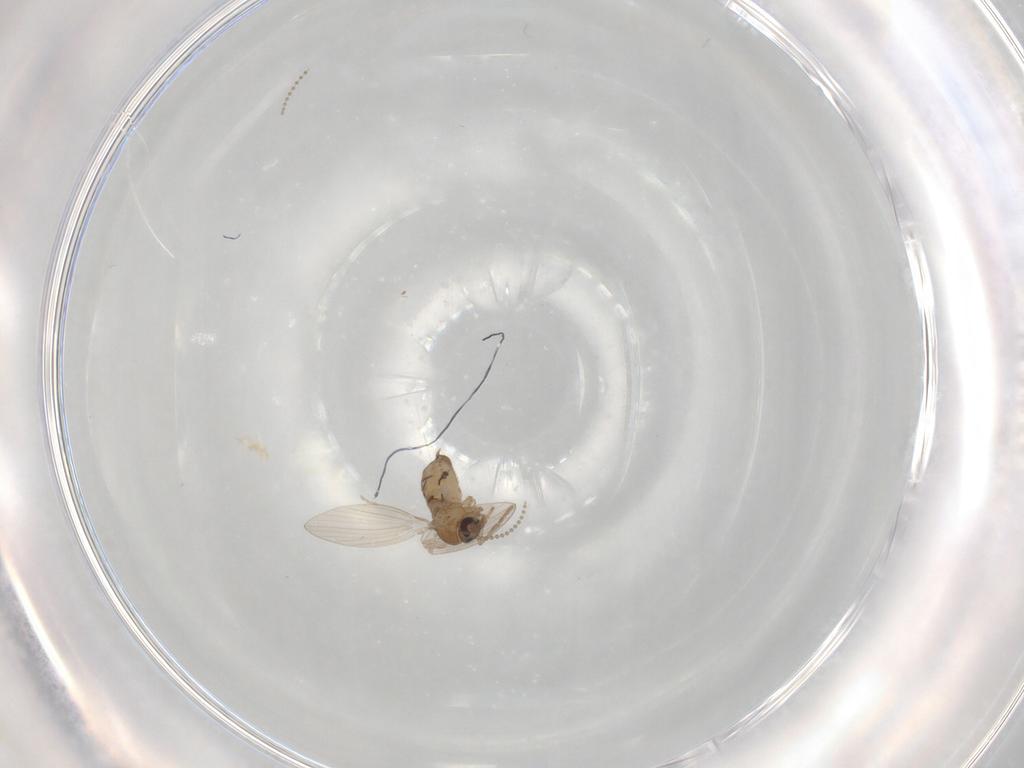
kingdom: Animalia
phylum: Arthropoda
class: Insecta
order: Diptera
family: Psychodidae
